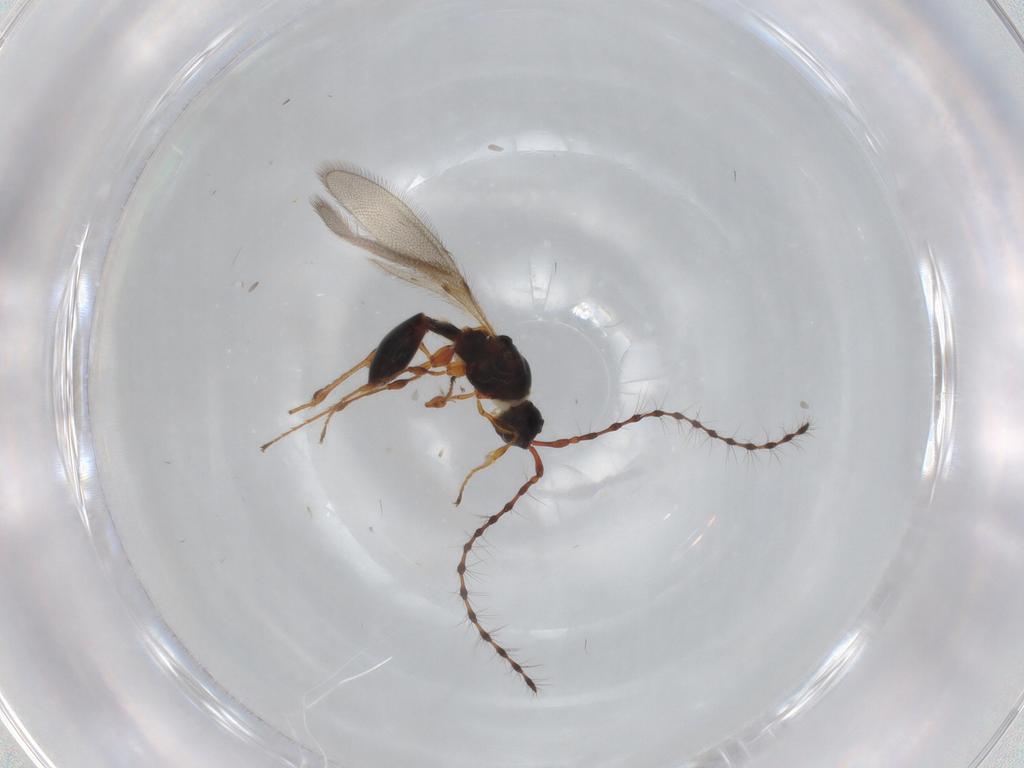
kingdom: Animalia
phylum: Arthropoda
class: Insecta
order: Hymenoptera
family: Diapriidae
